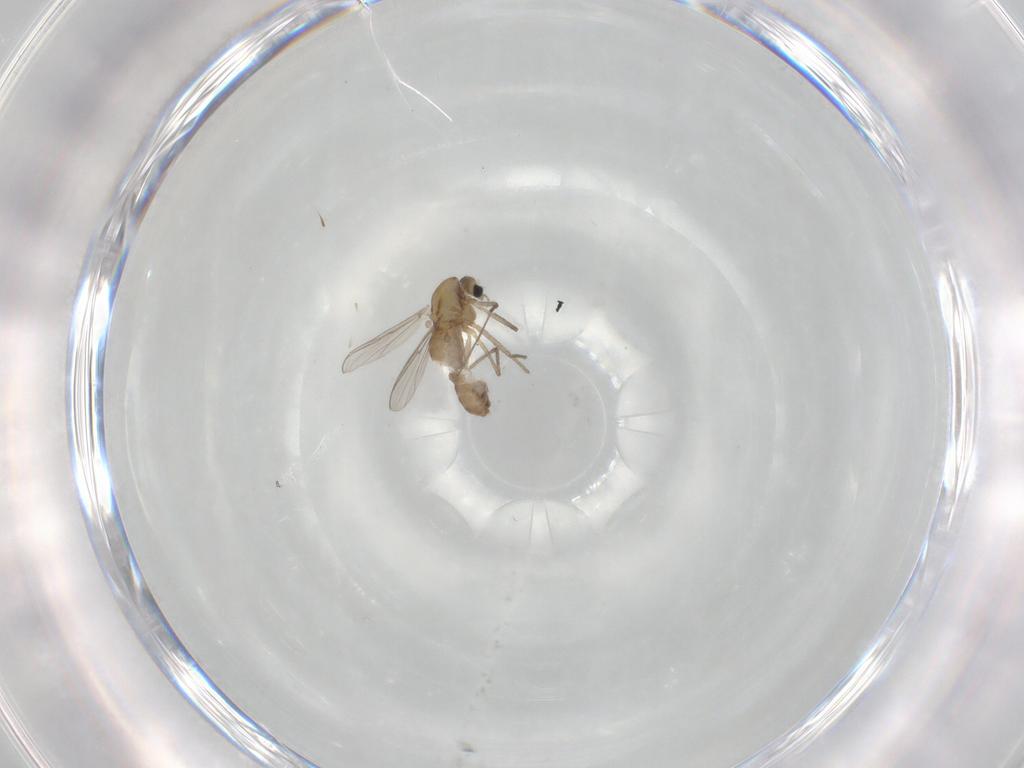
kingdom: Animalia
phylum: Arthropoda
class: Insecta
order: Diptera
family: Chironomidae
